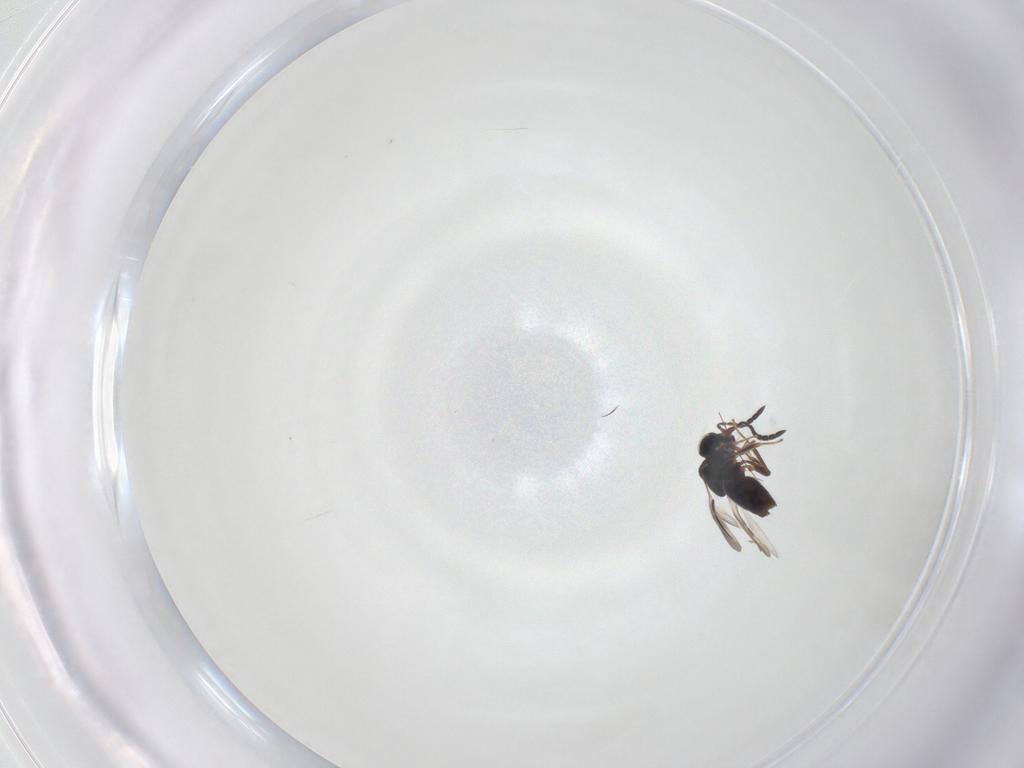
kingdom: Animalia
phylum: Arthropoda
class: Insecta
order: Hymenoptera
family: Ceraphronidae
